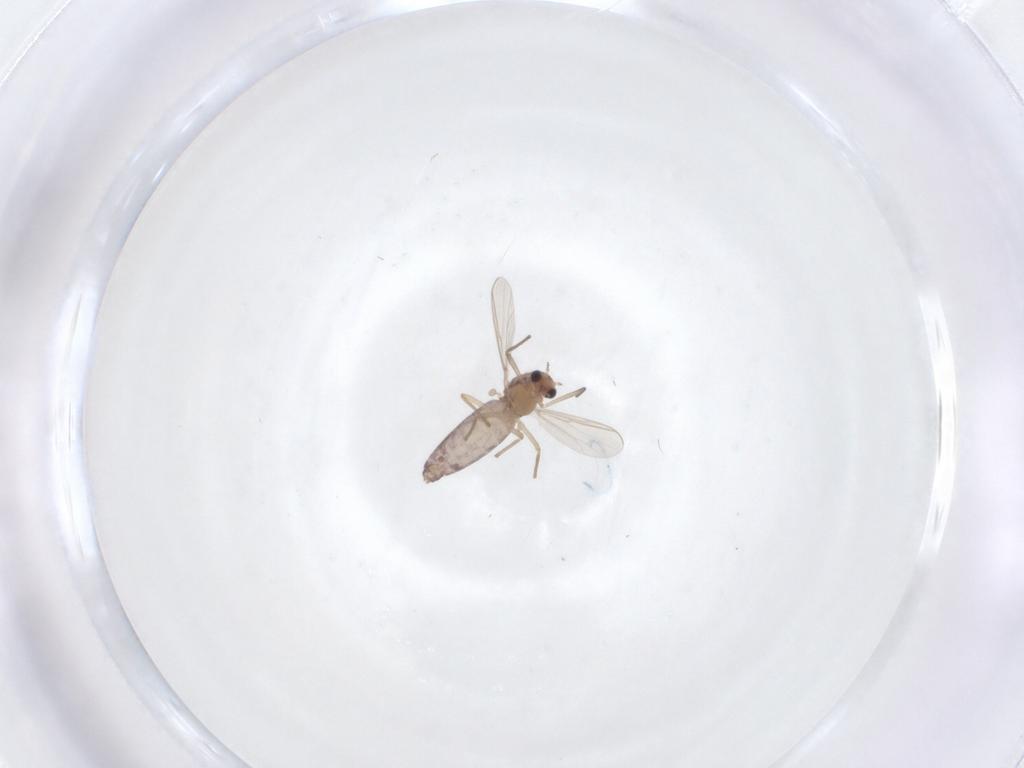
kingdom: Animalia
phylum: Arthropoda
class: Insecta
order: Diptera
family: Chironomidae
